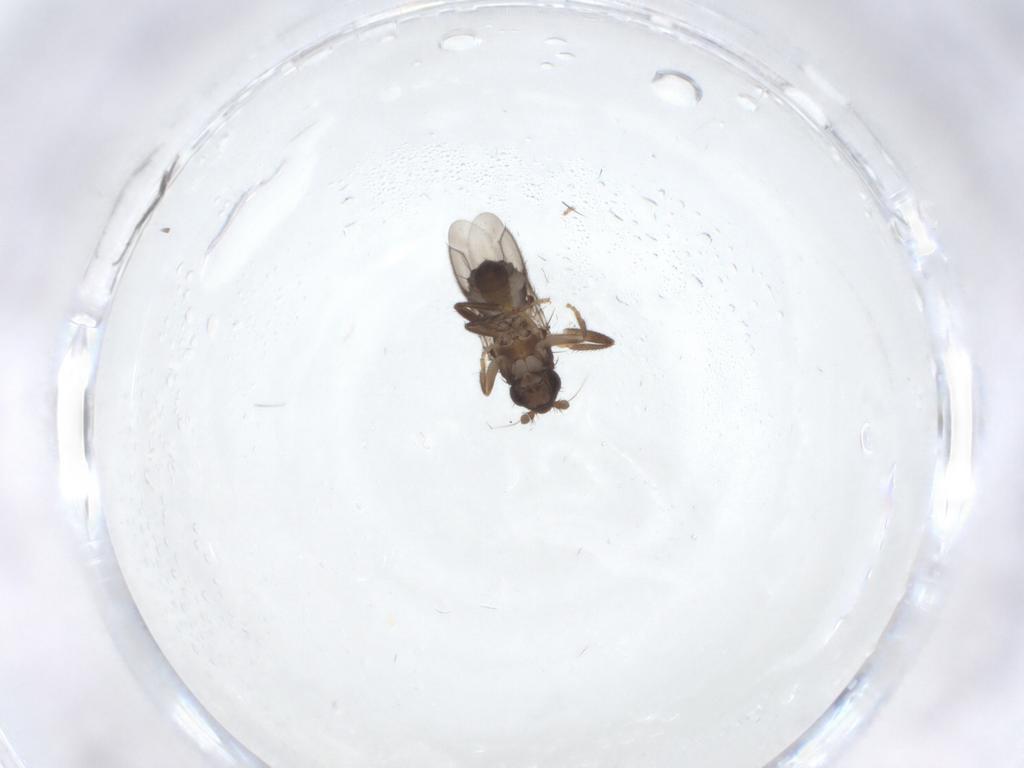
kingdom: Animalia
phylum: Arthropoda
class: Insecta
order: Diptera
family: Sphaeroceridae
